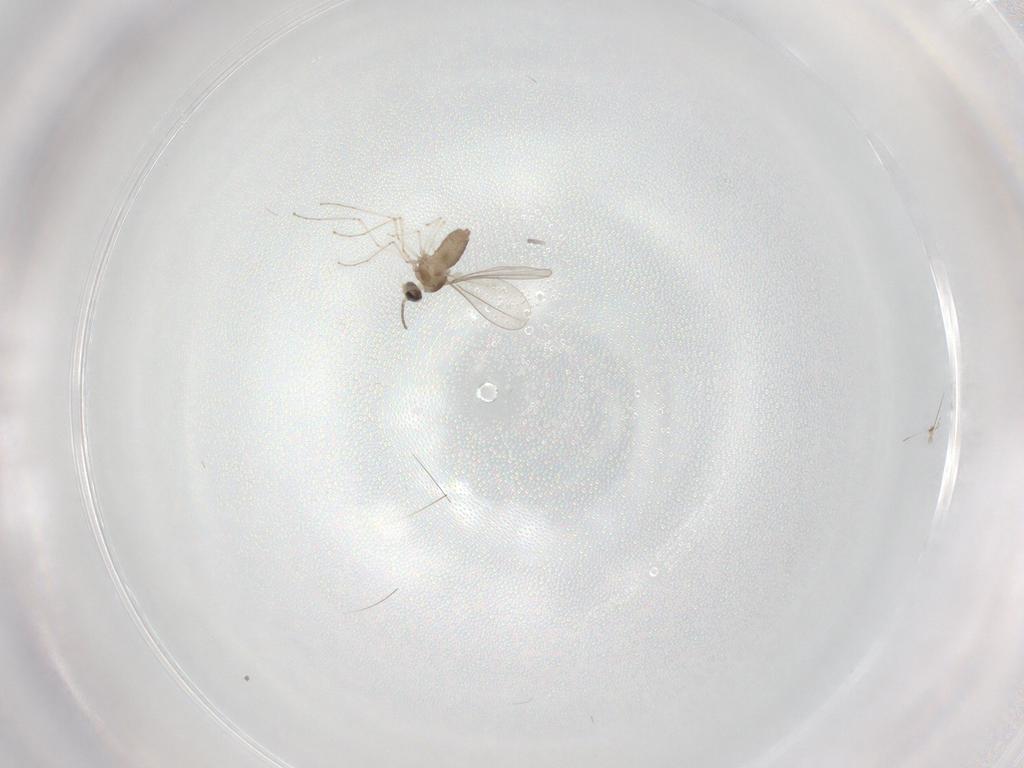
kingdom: Animalia
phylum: Arthropoda
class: Insecta
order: Diptera
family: Cecidomyiidae
